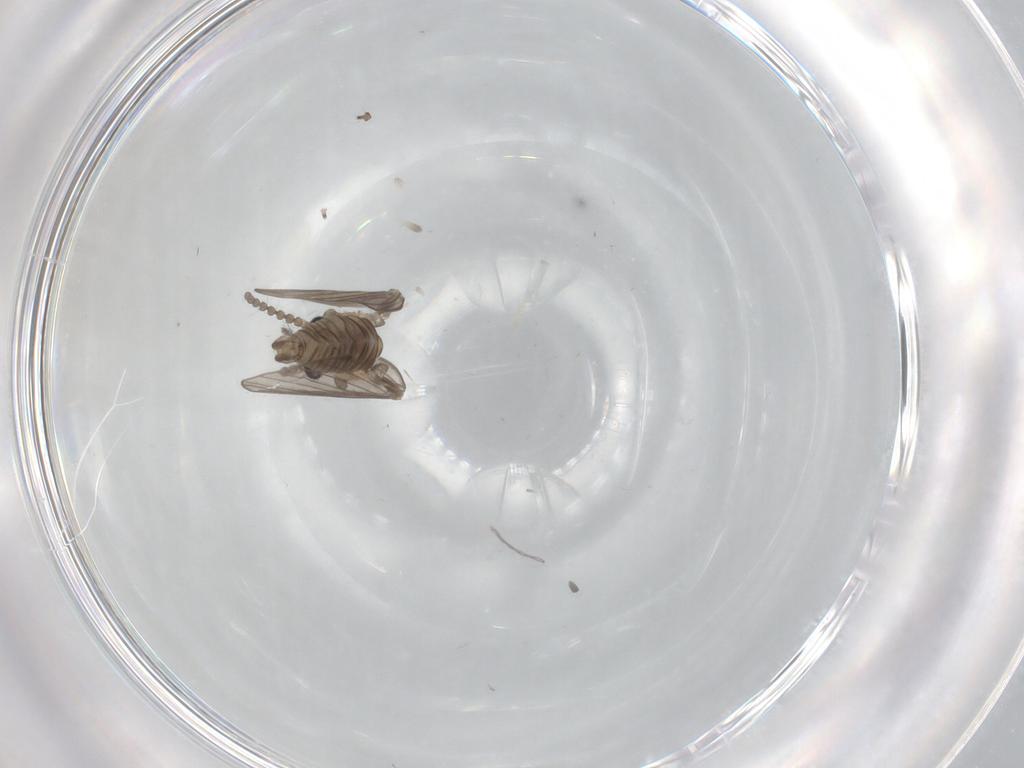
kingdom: Animalia
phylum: Arthropoda
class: Insecta
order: Diptera
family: Psychodidae
